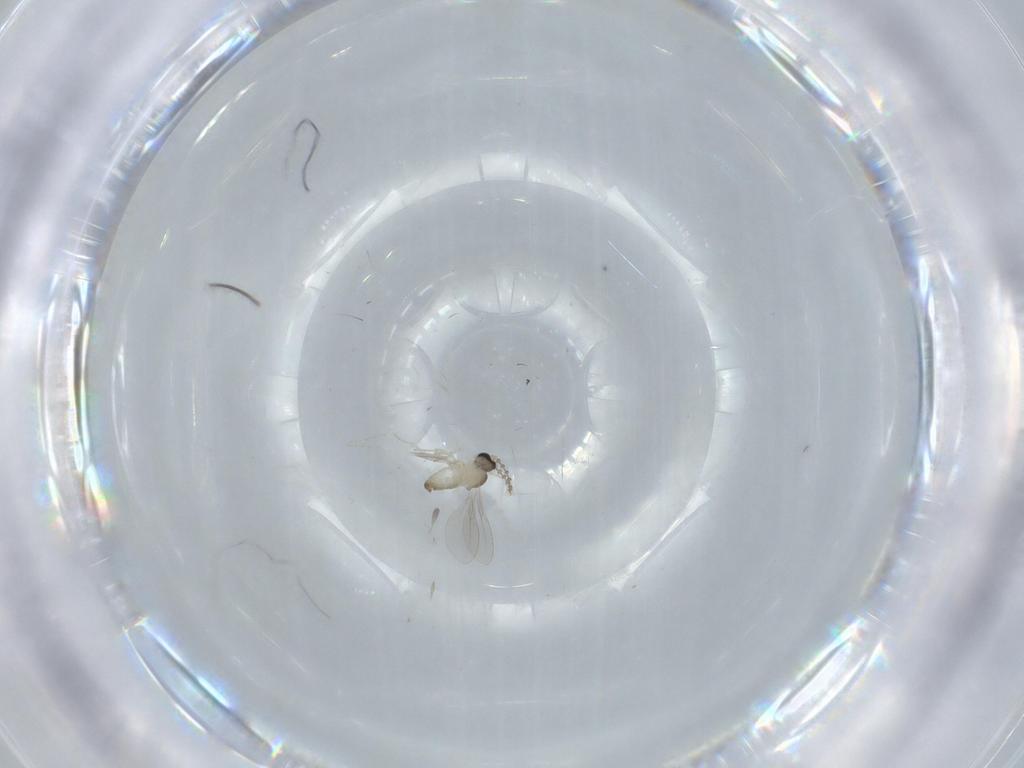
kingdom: Animalia
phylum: Arthropoda
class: Insecta
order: Diptera
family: Cecidomyiidae
